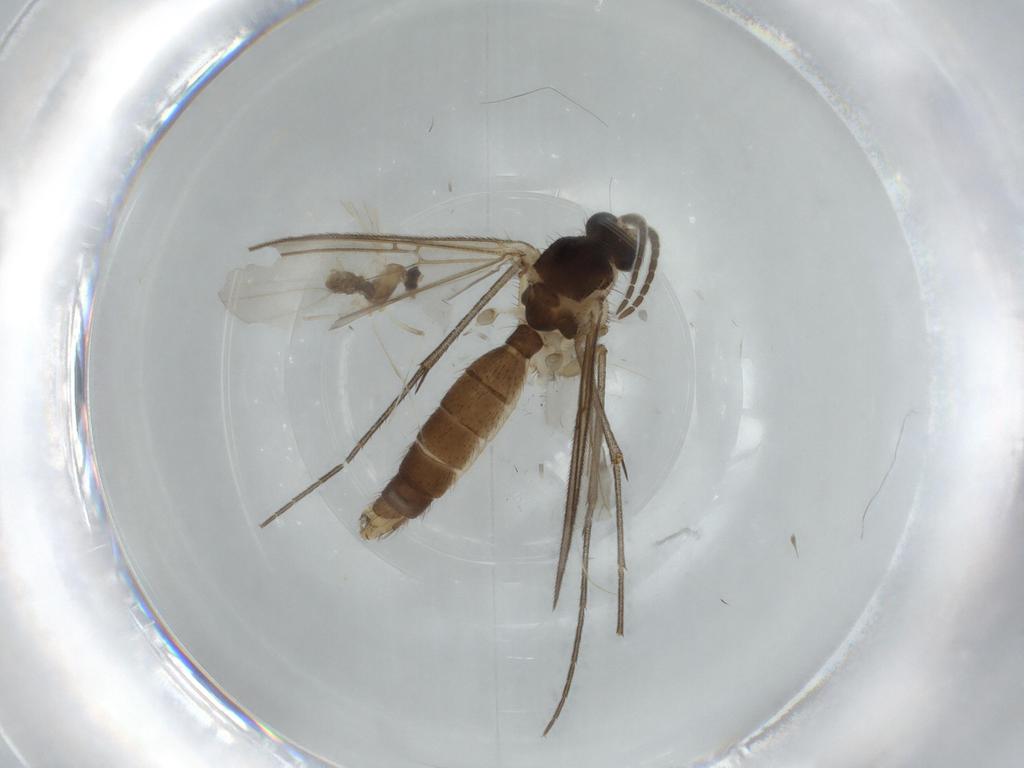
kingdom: Animalia
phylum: Arthropoda
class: Insecta
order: Diptera
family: Mycetophilidae
